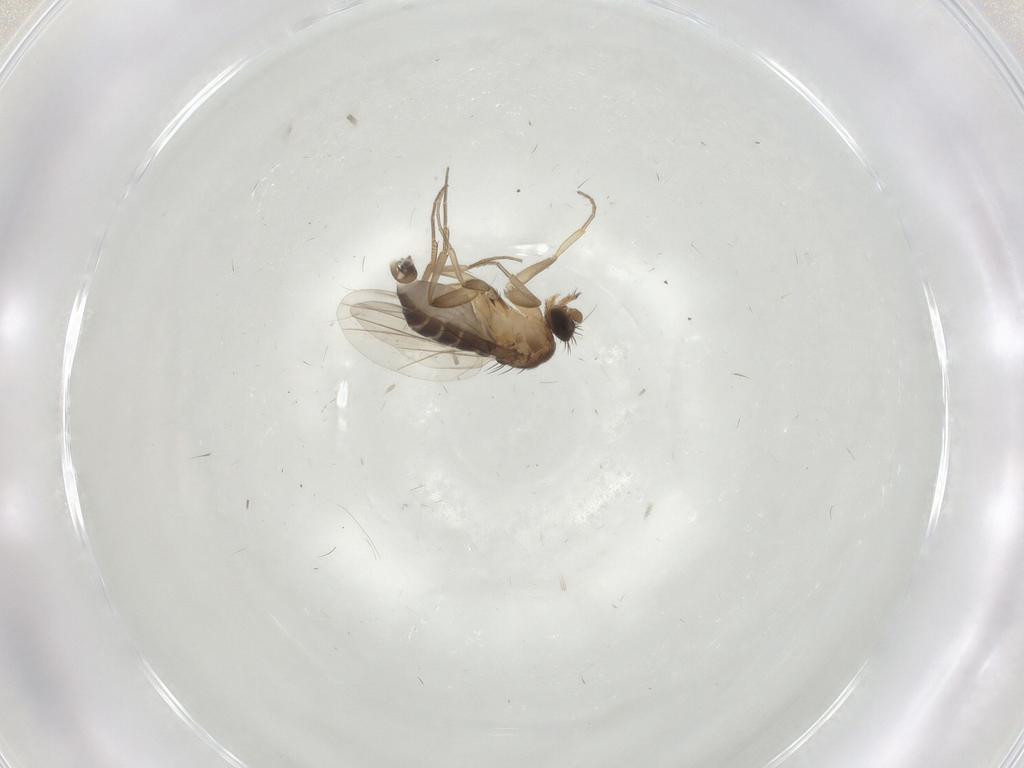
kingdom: Animalia
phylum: Arthropoda
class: Insecta
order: Diptera
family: Phoridae
